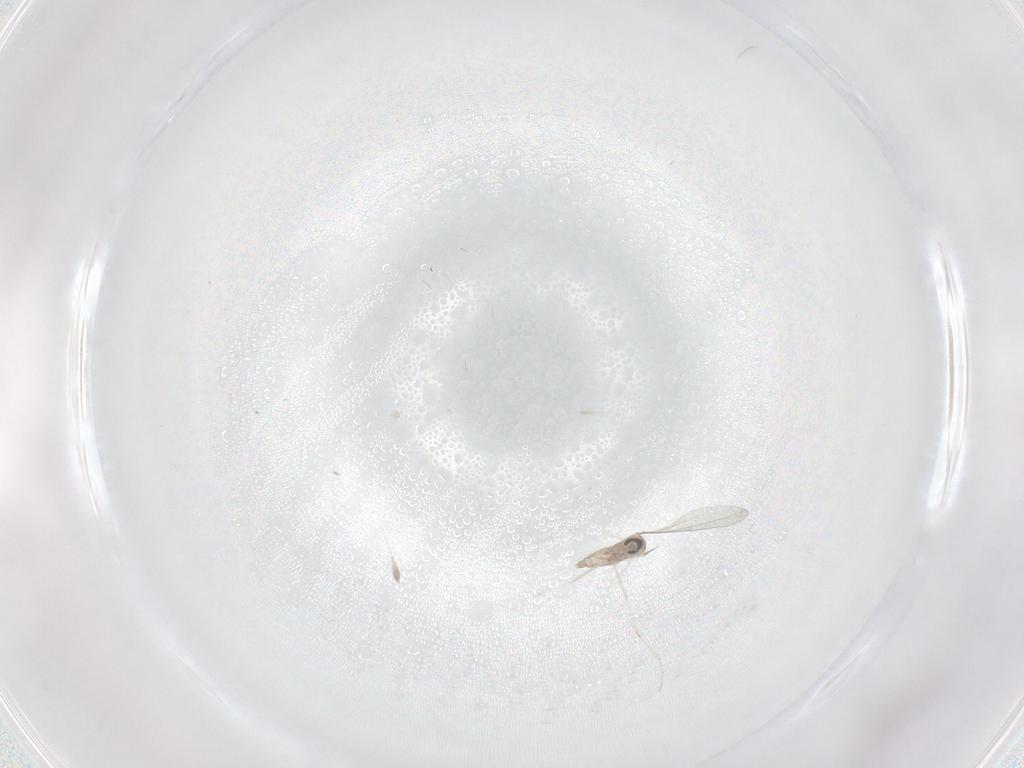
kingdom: Animalia
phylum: Arthropoda
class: Insecta
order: Diptera
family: Cecidomyiidae
